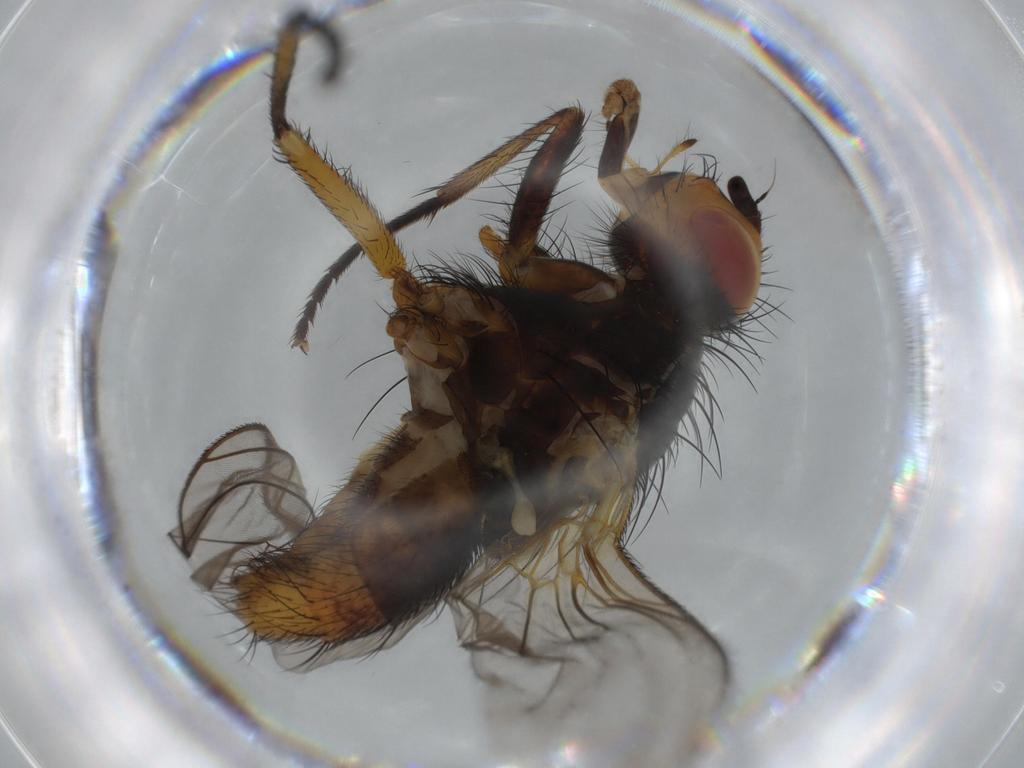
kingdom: Animalia
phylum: Arthropoda
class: Insecta
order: Diptera
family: Anthomyiidae
